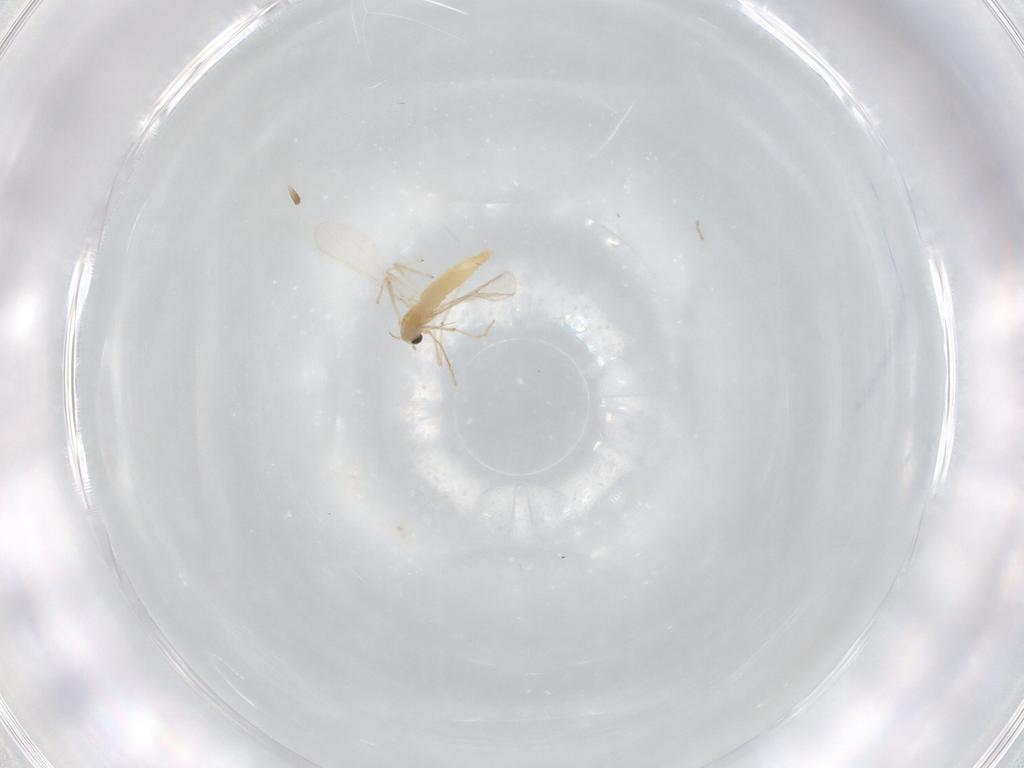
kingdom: Animalia
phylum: Arthropoda
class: Insecta
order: Diptera
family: Chironomidae
